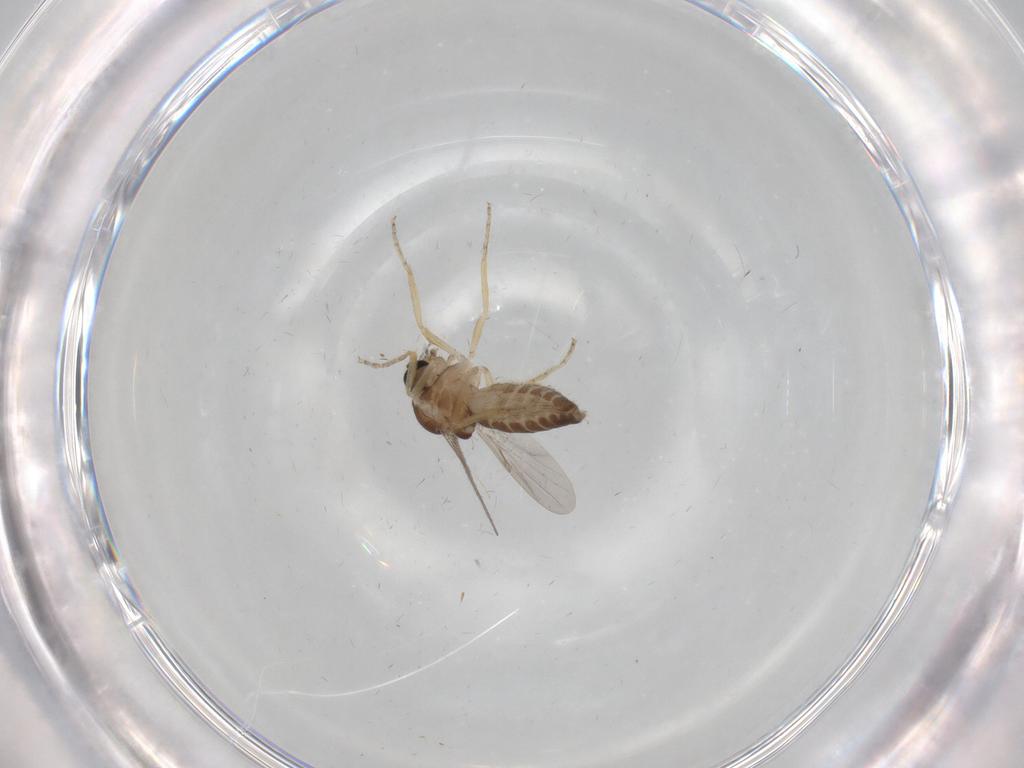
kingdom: Animalia
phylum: Arthropoda
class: Insecta
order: Diptera
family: Ceratopogonidae
